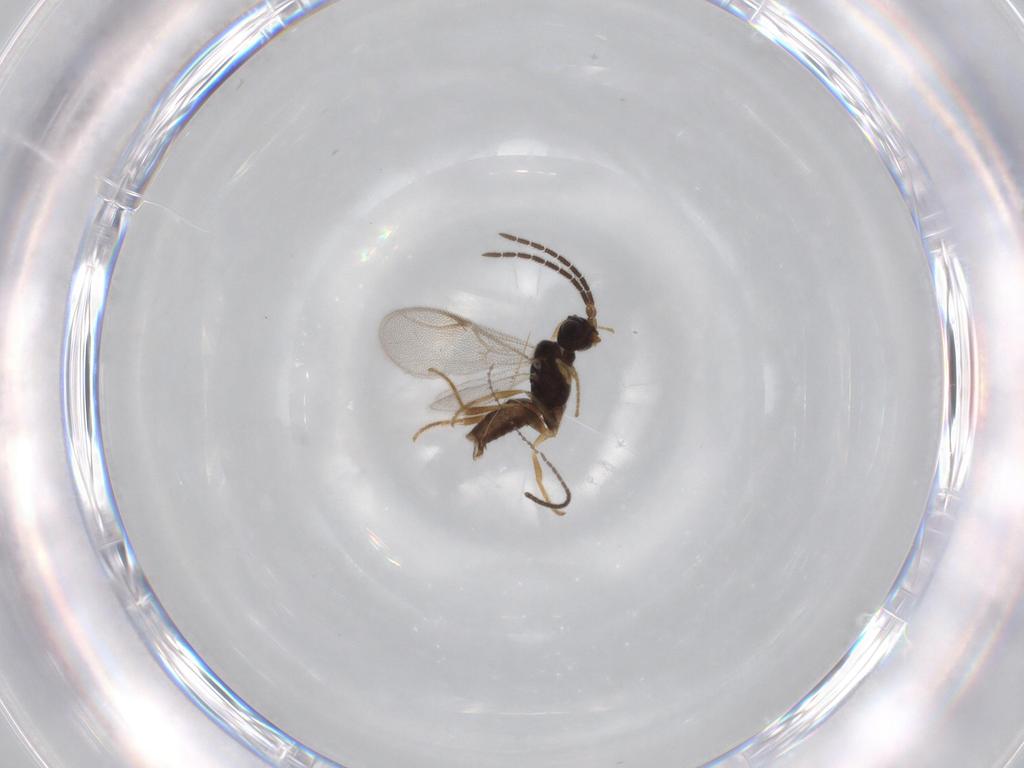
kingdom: Animalia
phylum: Arthropoda
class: Insecta
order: Hymenoptera
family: Dryinidae
